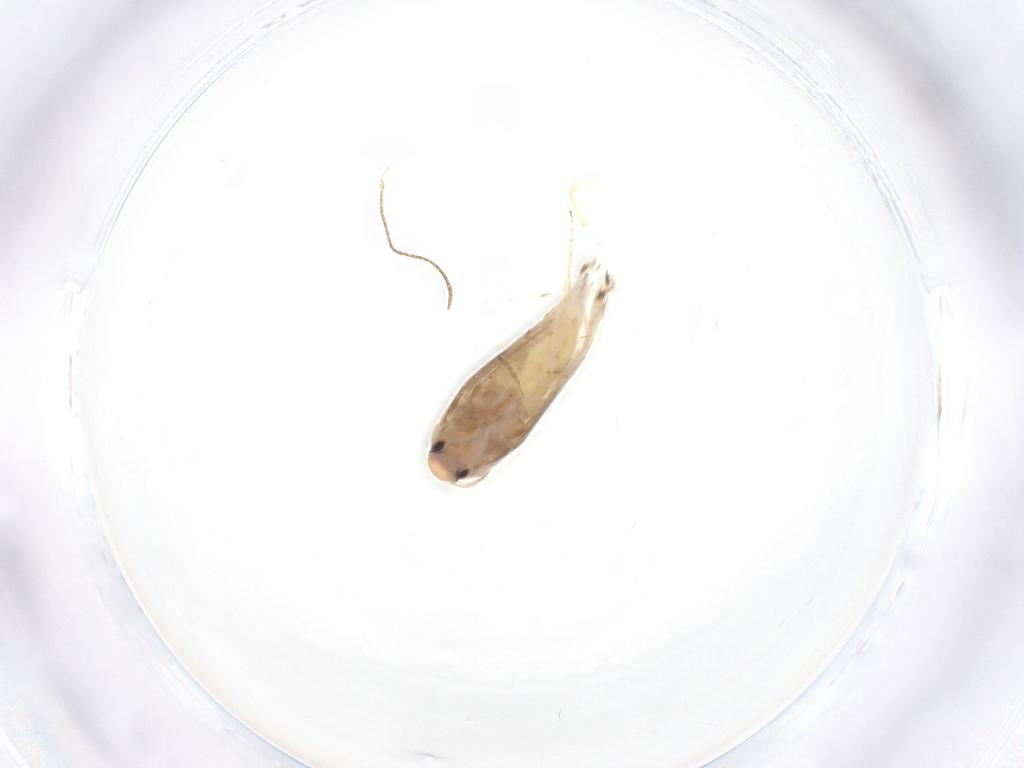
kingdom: Animalia
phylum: Arthropoda
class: Insecta
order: Lepidoptera
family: Lyonetiidae
